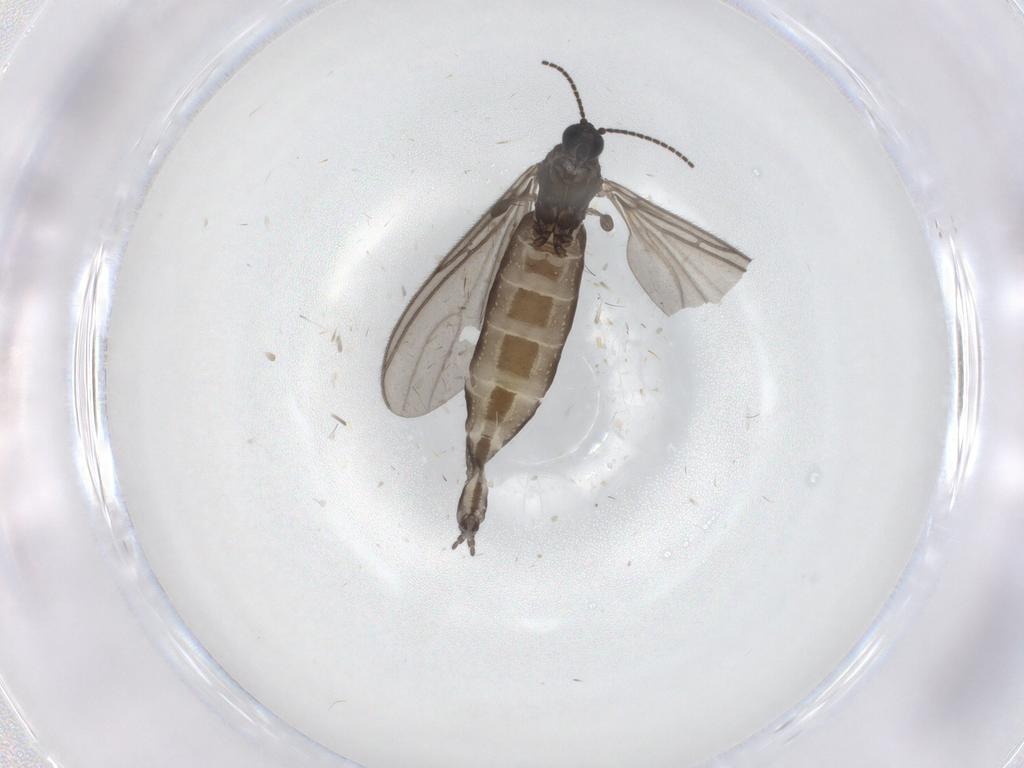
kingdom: Animalia
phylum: Arthropoda
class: Insecta
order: Diptera
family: Sciaridae
